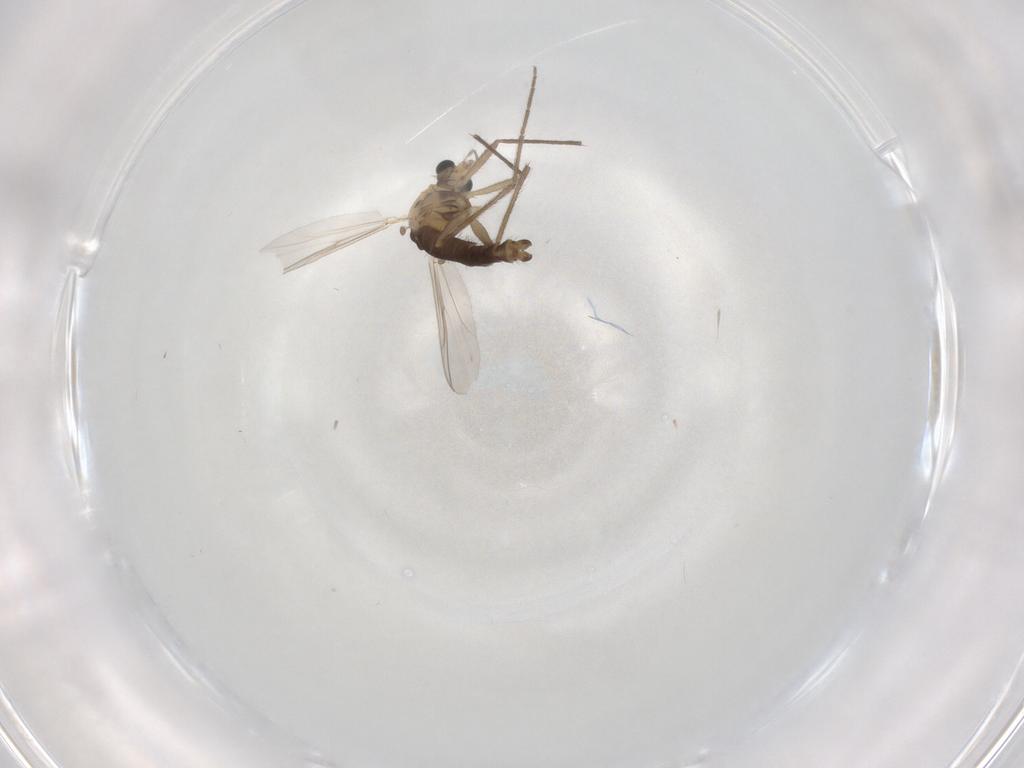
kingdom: Animalia
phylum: Arthropoda
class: Insecta
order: Diptera
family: Chironomidae
